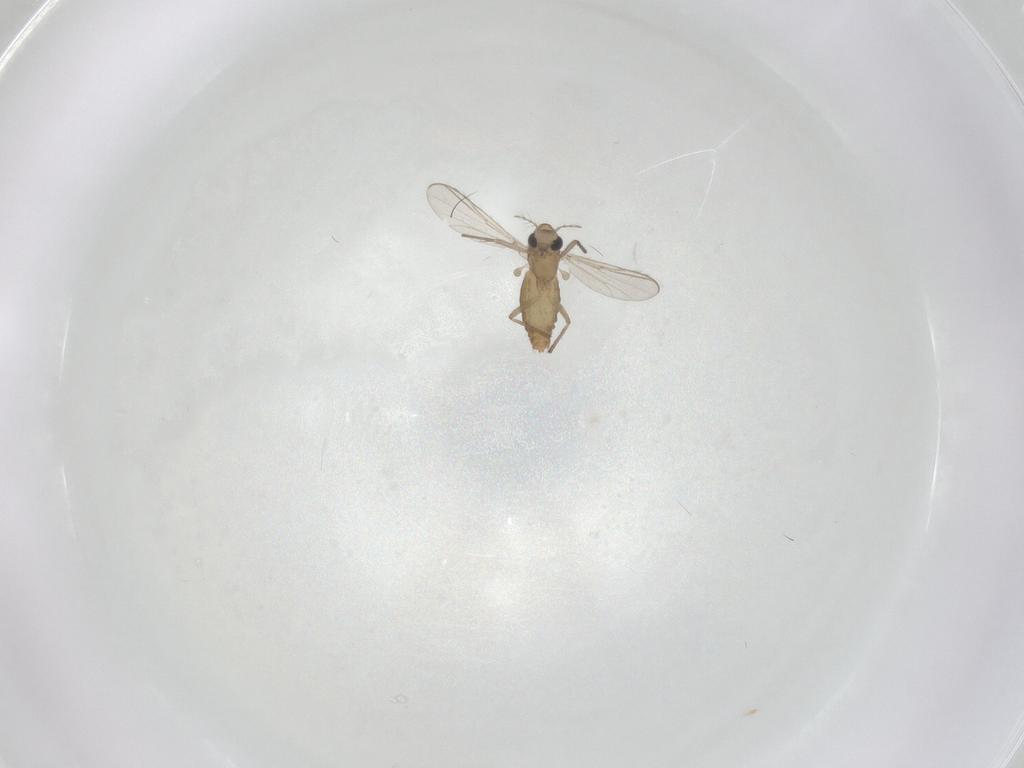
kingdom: Animalia
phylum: Arthropoda
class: Insecta
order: Diptera
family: Chironomidae
